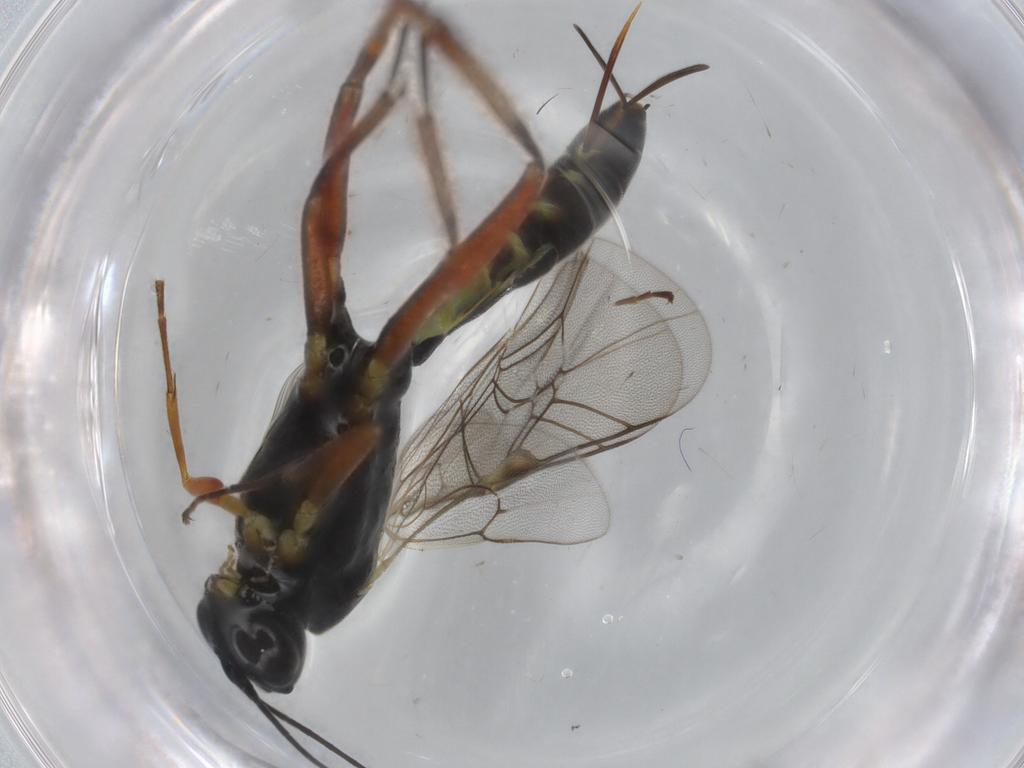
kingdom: Animalia
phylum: Arthropoda
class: Insecta
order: Hymenoptera
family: Ichneumonidae
